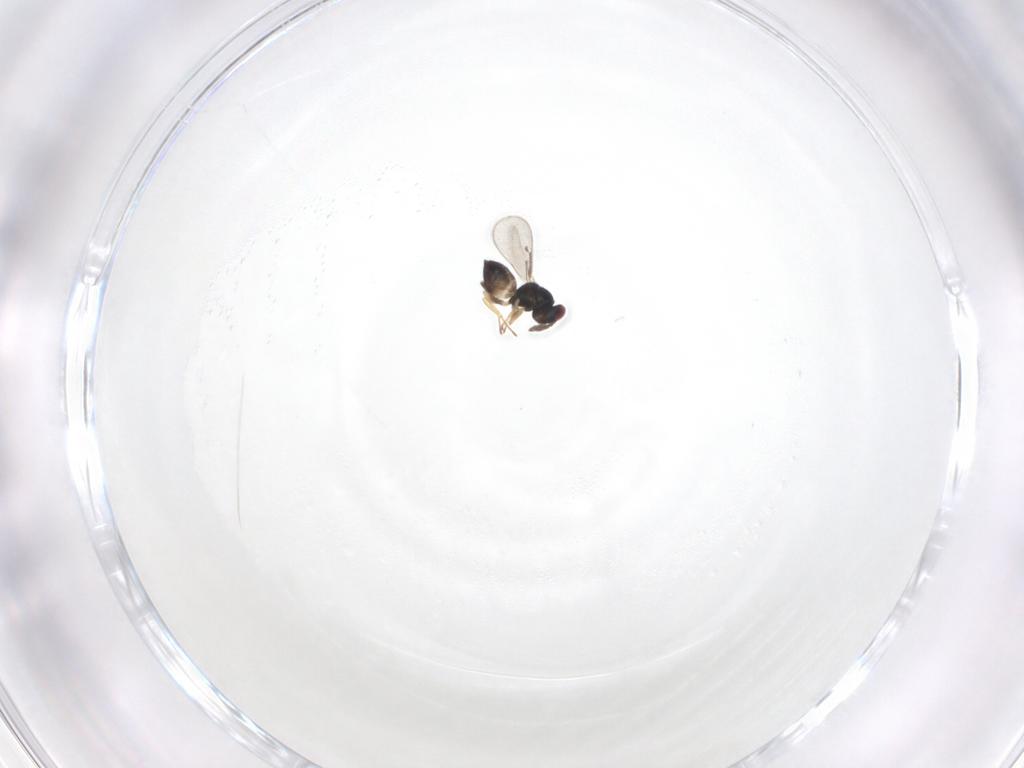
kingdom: Animalia
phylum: Arthropoda
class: Insecta
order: Hymenoptera
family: Eulophidae
